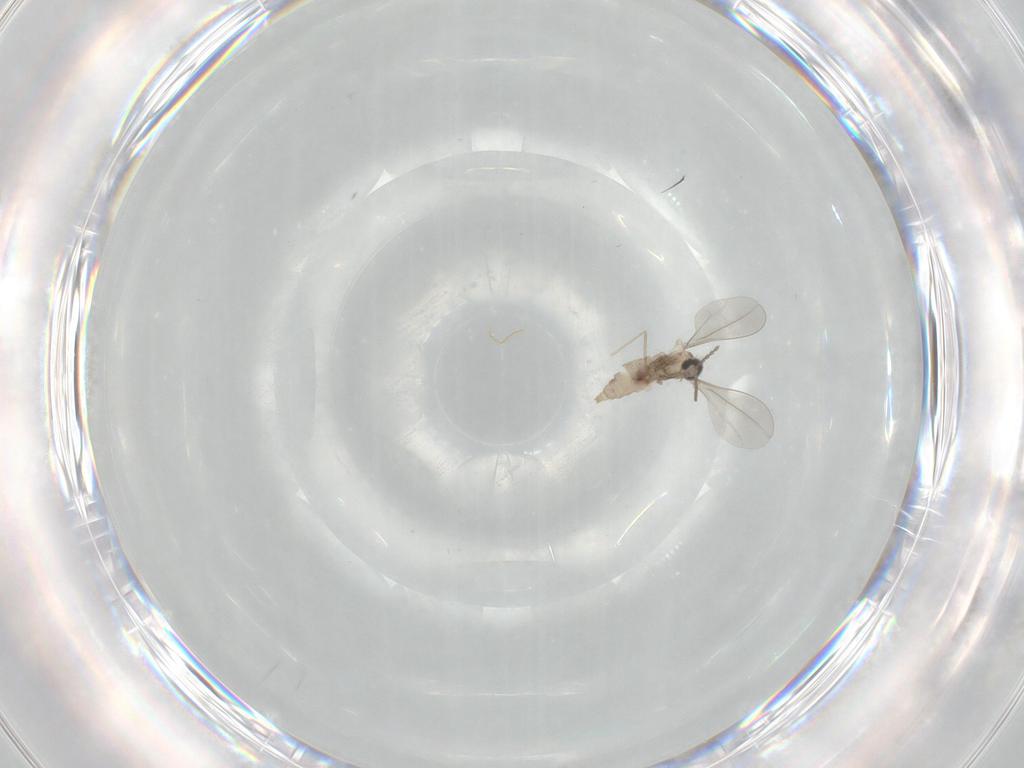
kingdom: Animalia
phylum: Arthropoda
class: Insecta
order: Diptera
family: Cecidomyiidae
